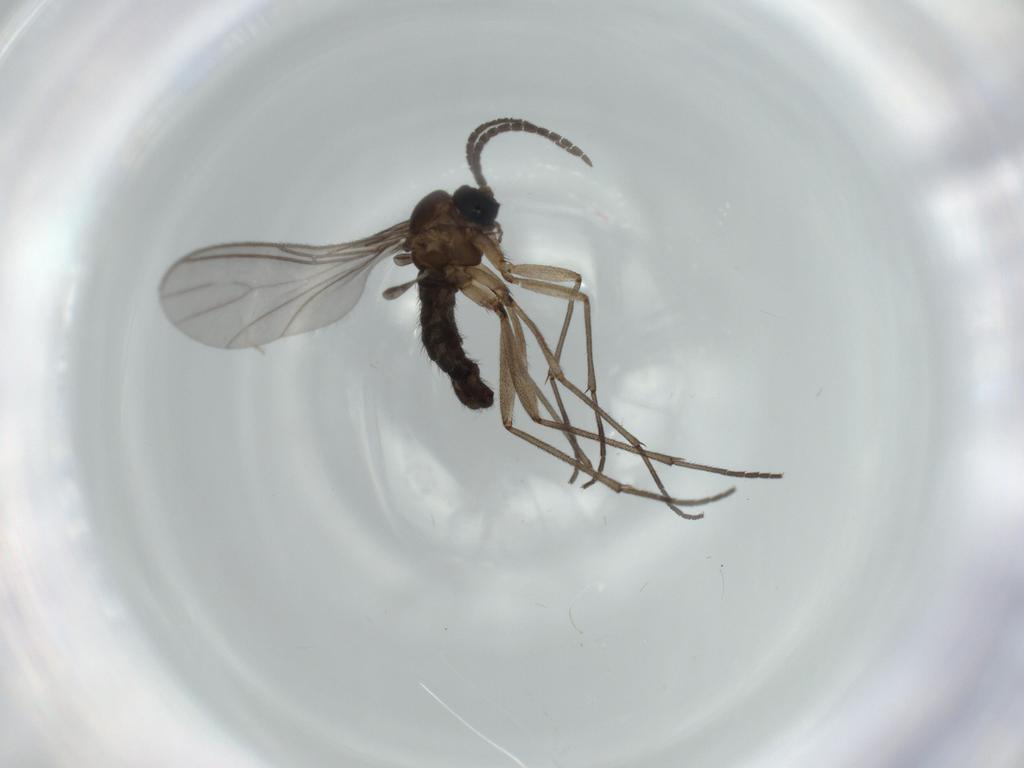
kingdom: Animalia
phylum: Arthropoda
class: Insecta
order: Diptera
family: Sciaridae
